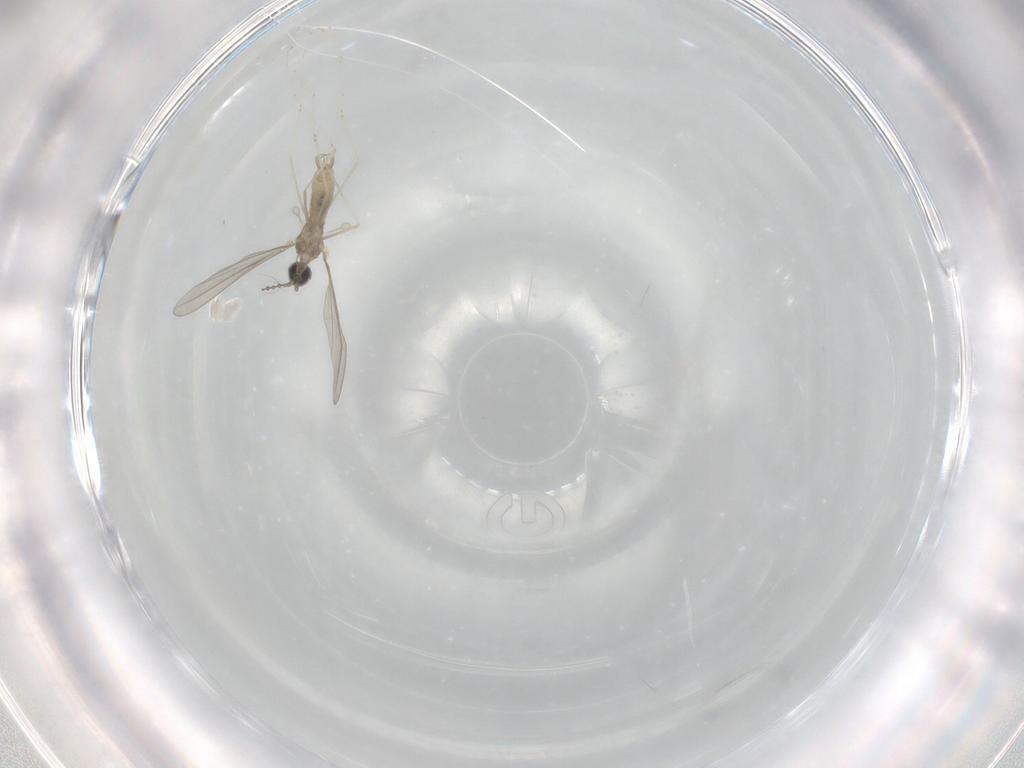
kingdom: Animalia
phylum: Arthropoda
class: Insecta
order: Diptera
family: Cecidomyiidae
